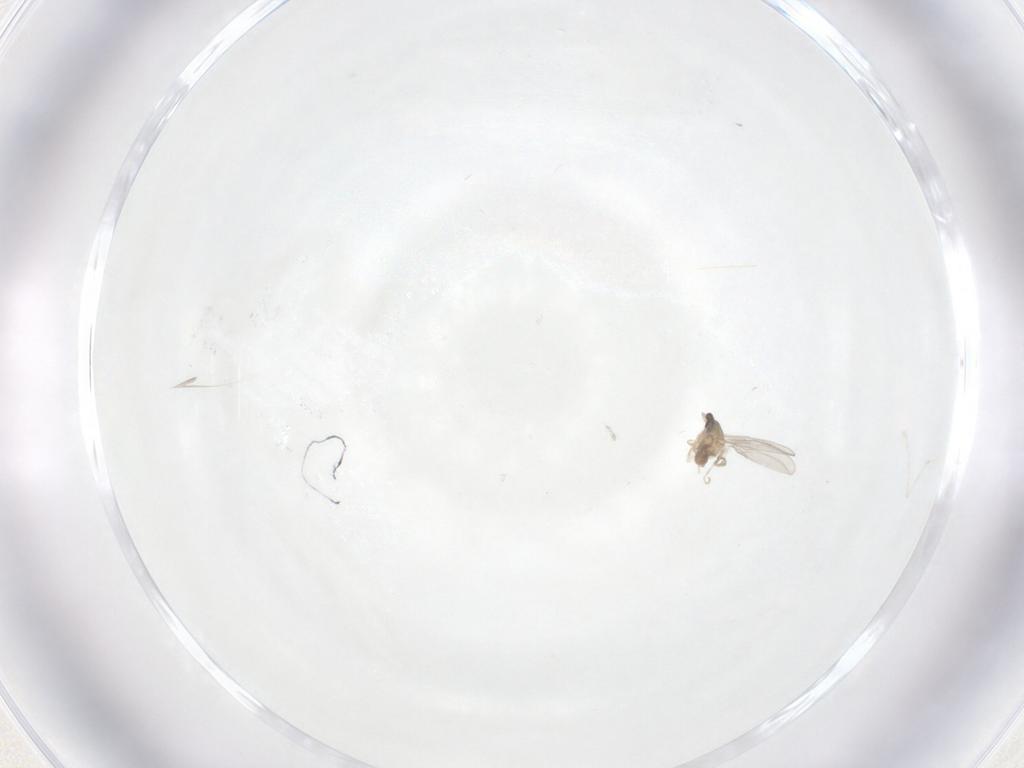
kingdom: Animalia
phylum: Arthropoda
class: Insecta
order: Diptera
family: Cecidomyiidae
